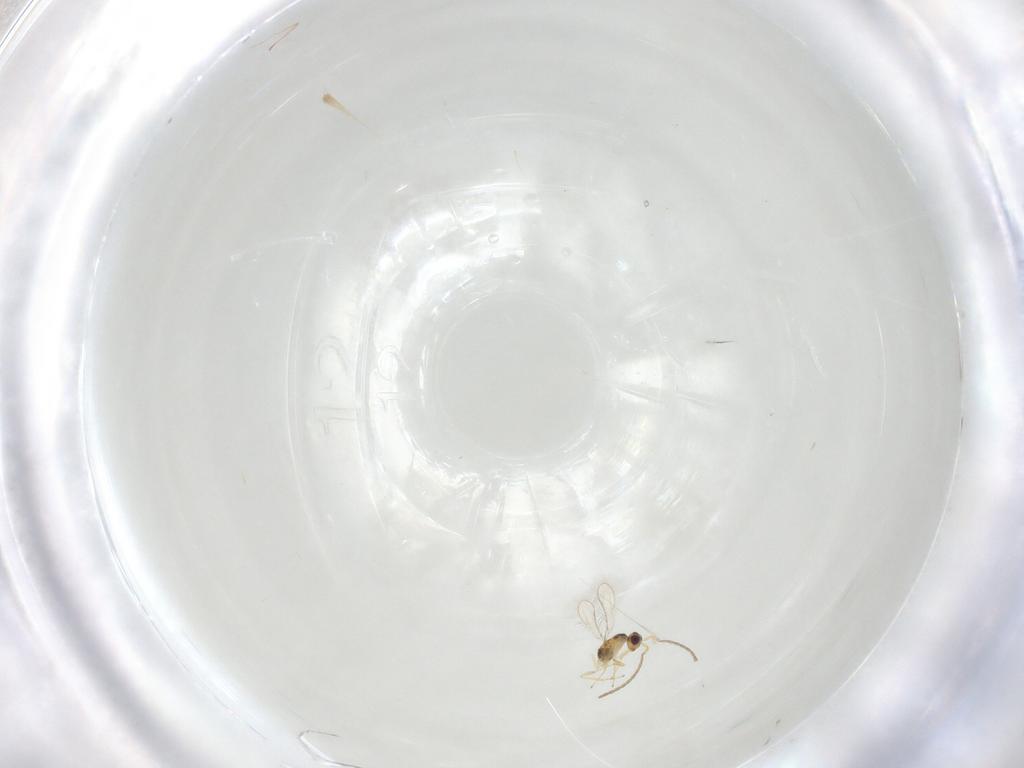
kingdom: Animalia
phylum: Arthropoda
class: Insecta
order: Diptera
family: Cecidomyiidae
